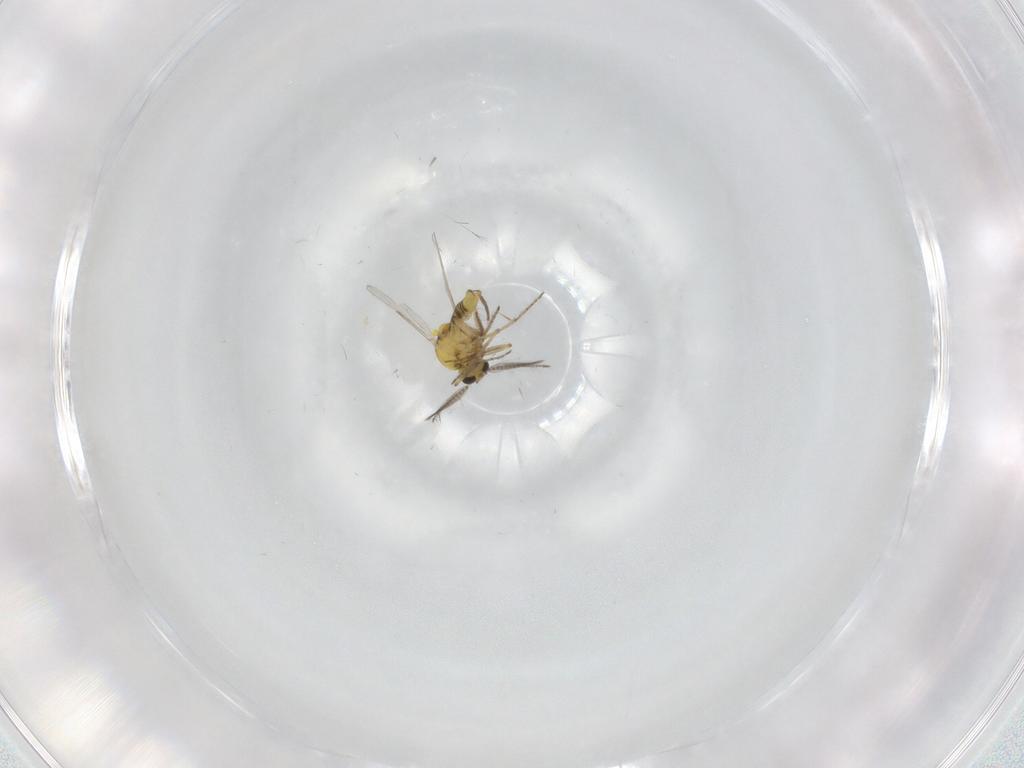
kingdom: Animalia
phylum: Arthropoda
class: Insecta
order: Diptera
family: Ceratopogonidae
